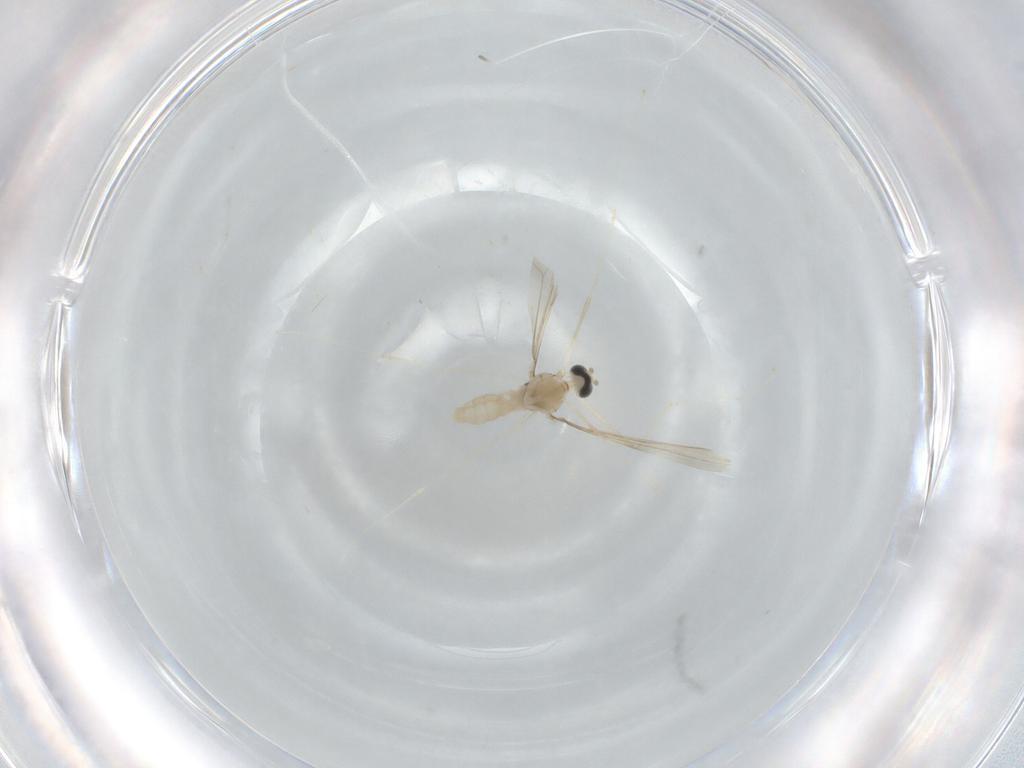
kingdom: Animalia
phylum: Arthropoda
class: Insecta
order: Diptera
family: Cecidomyiidae
